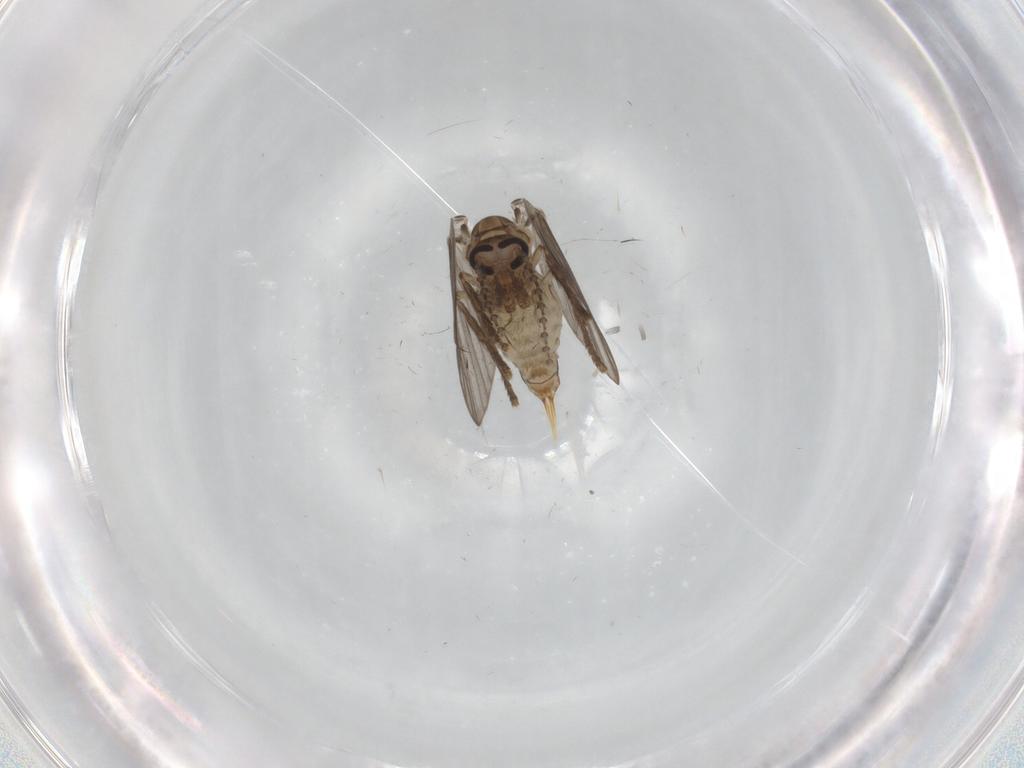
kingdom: Animalia
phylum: Arthropoda
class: Insecta
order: Diptera
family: Psychodidae
